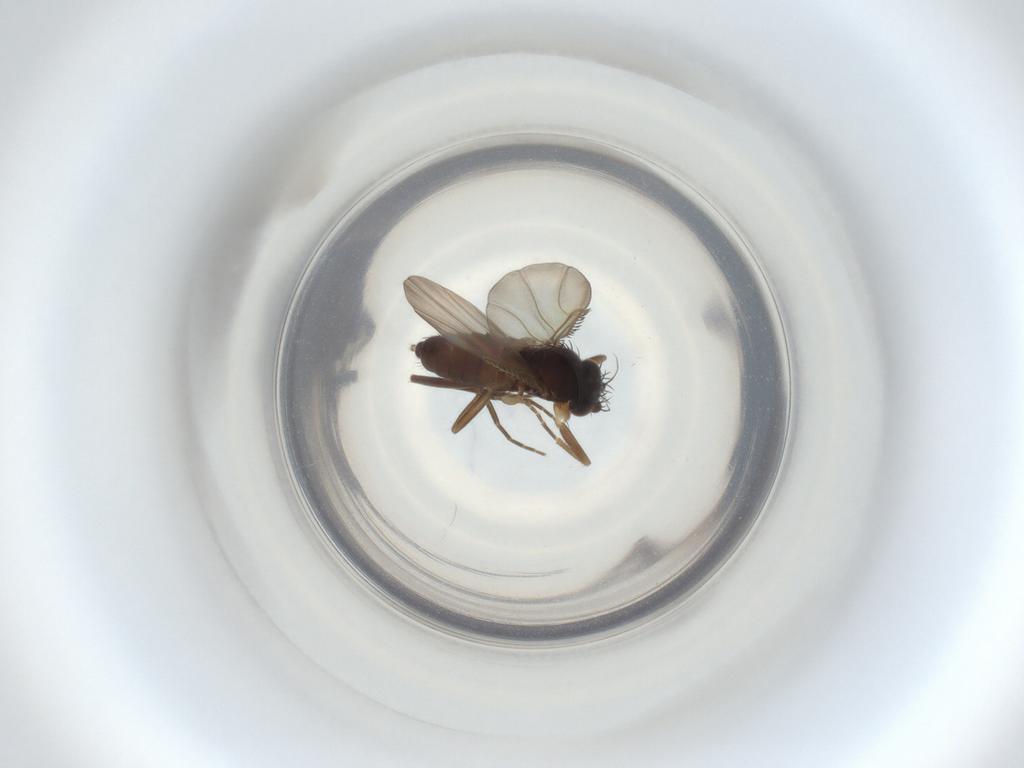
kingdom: Animalia
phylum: Arthropoda
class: Insecta
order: Diptera
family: Phoridae
